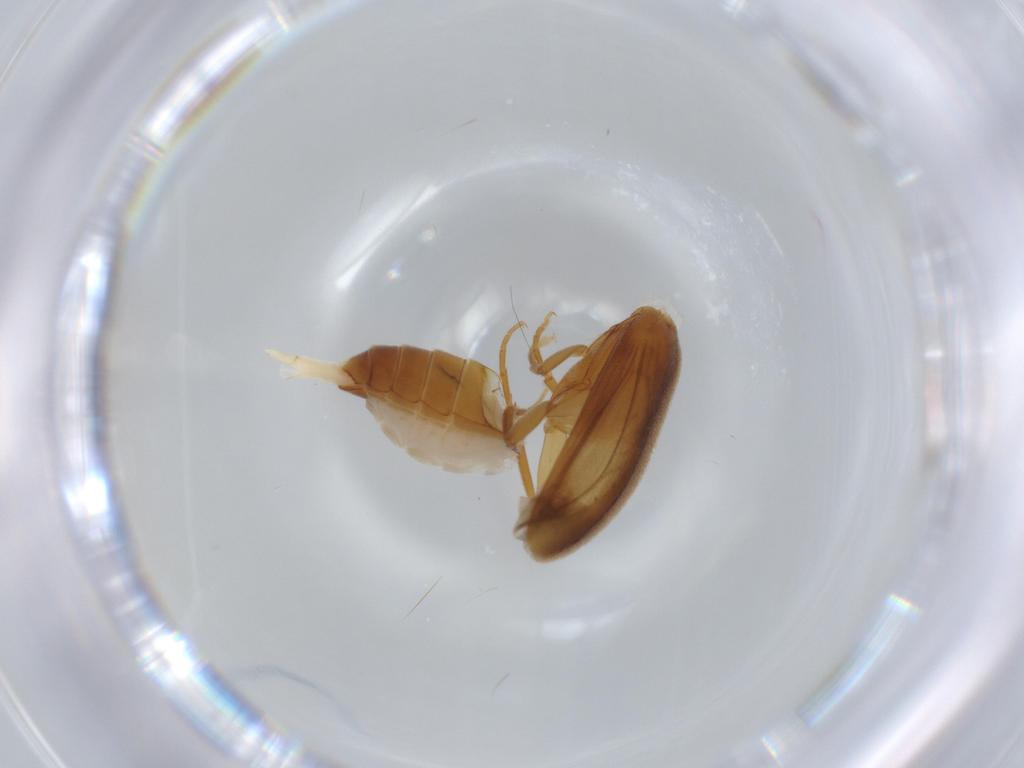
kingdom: Animalia
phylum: Arthropoda
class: Insecta
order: Coleoptera
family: Scraptiidae
